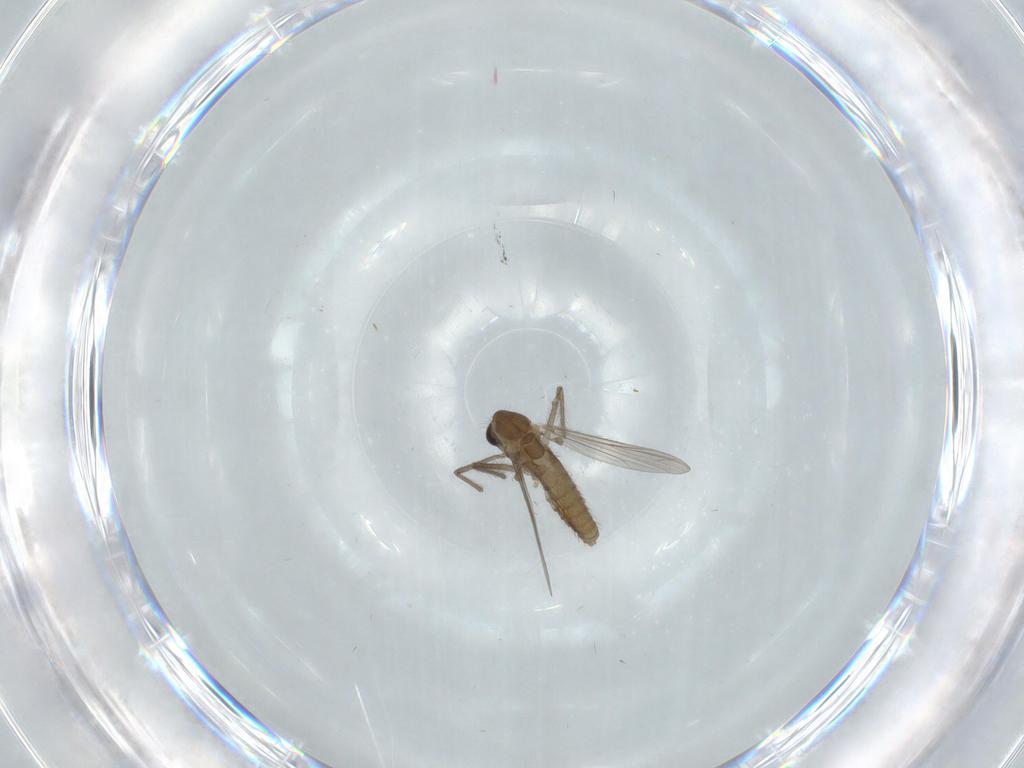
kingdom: Animalia
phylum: Arthropoda
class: Insecta
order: Diptera
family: Chironomidae
